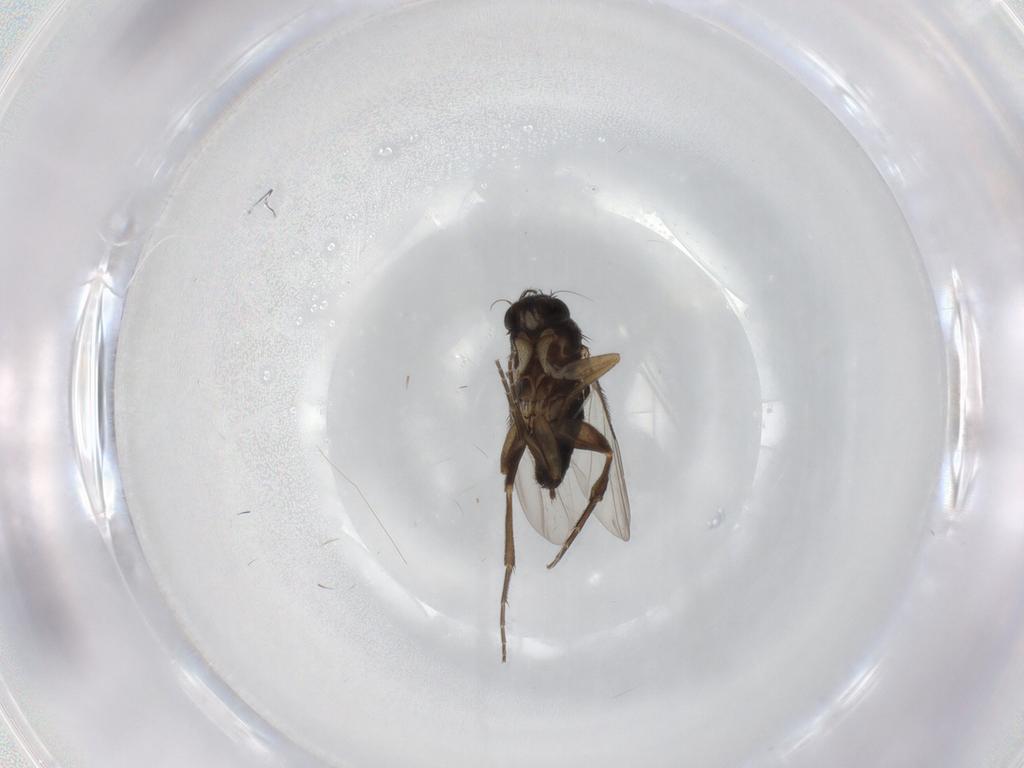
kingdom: Animalia
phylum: Arthropoda
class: Insecta
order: Diptera
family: Phoridae
